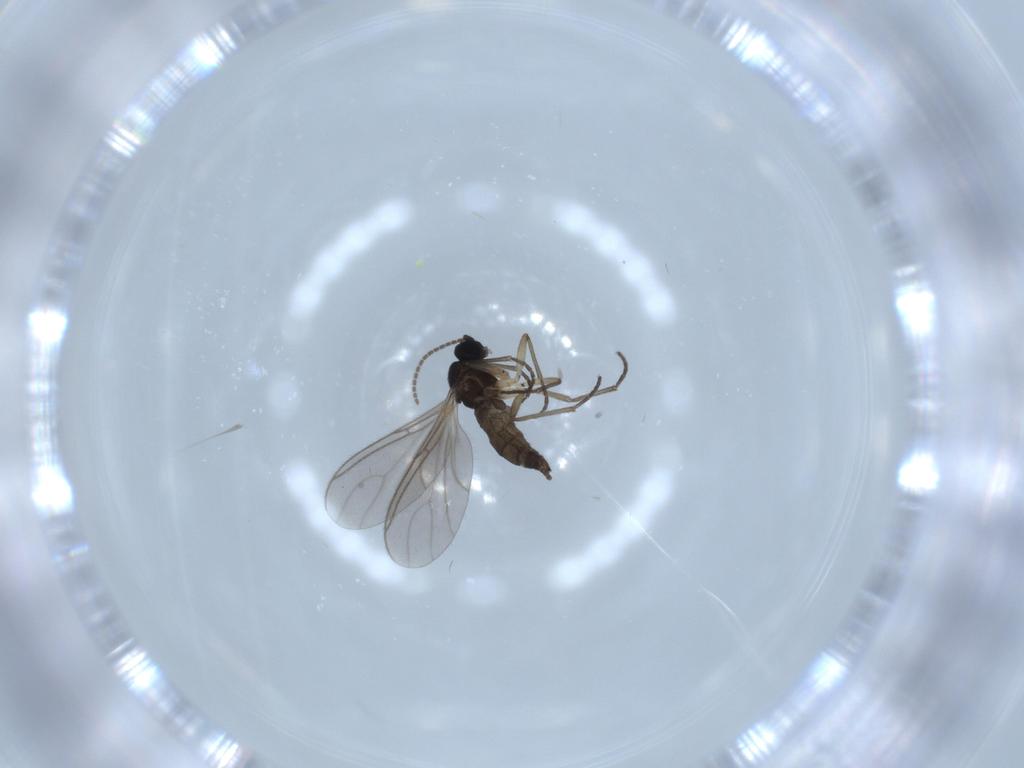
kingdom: Animalia
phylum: Arthropoda
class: Insecta
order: Diptera
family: Sciaridae
